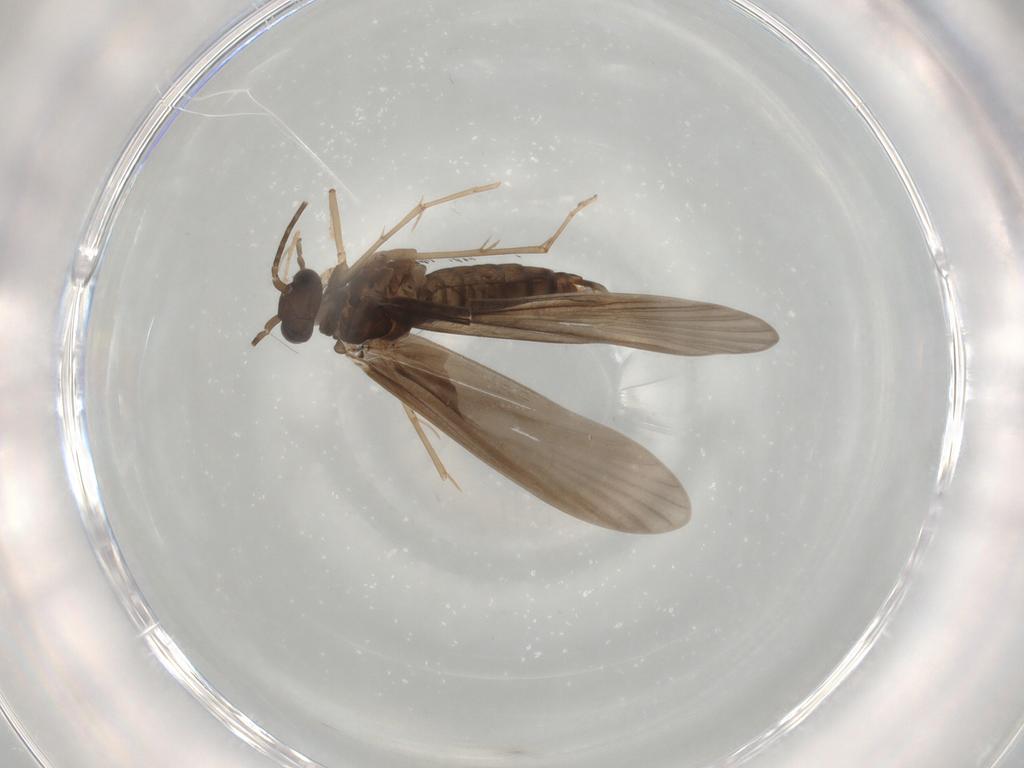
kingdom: Animalia
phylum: Arthropoda
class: Insecta
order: Trichoptera
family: Xiphocentronidae
